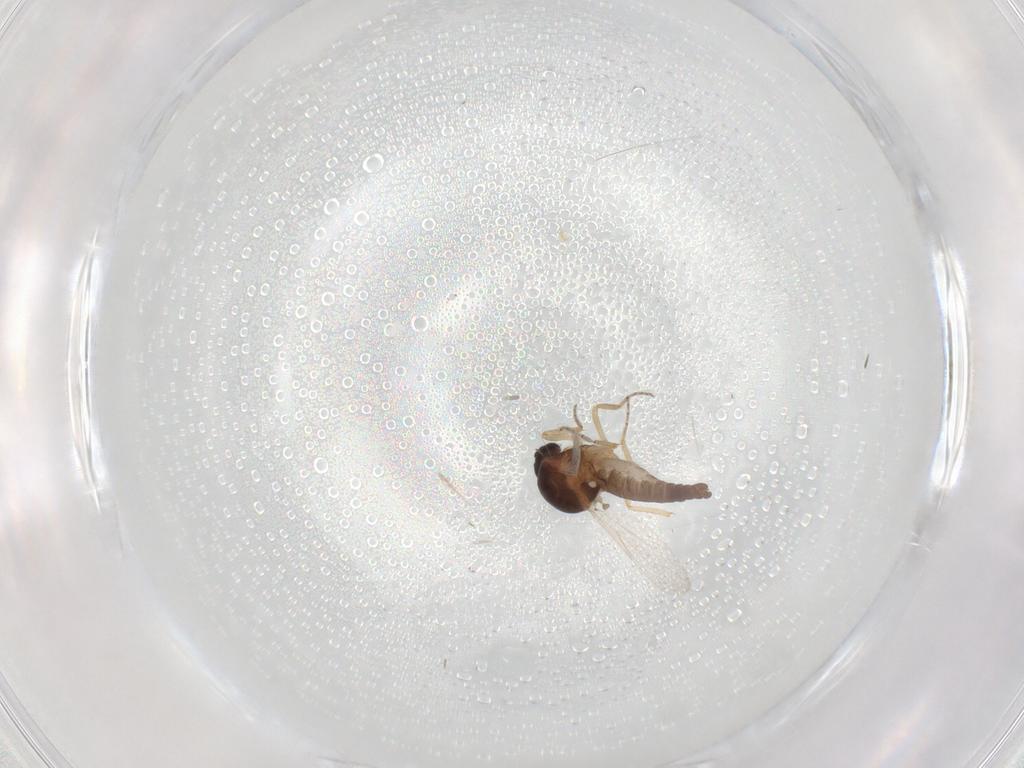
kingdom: Animalia
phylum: Arthropoda
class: Insecta
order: Diptera
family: Ceratopogonidae
